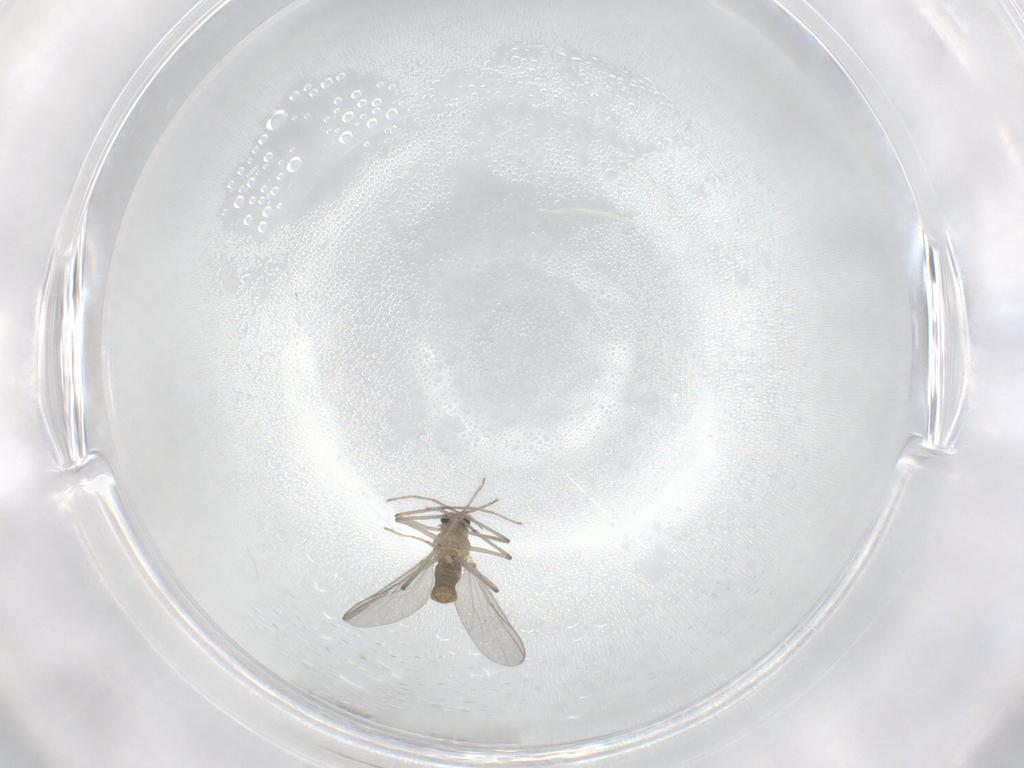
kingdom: Animalia
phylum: Arthropoda
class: Insecta
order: Diptera
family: Chironomidae
